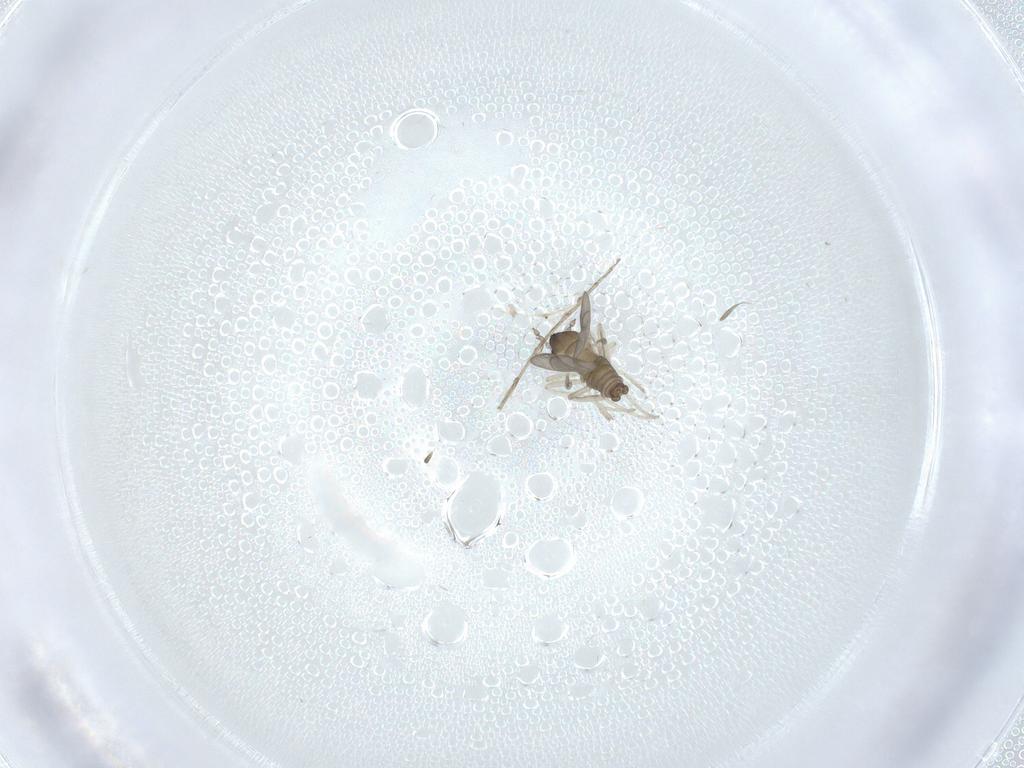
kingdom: Animalia
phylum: Arthropoda
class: Insecta
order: Diptera
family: Cecidomyiidae
